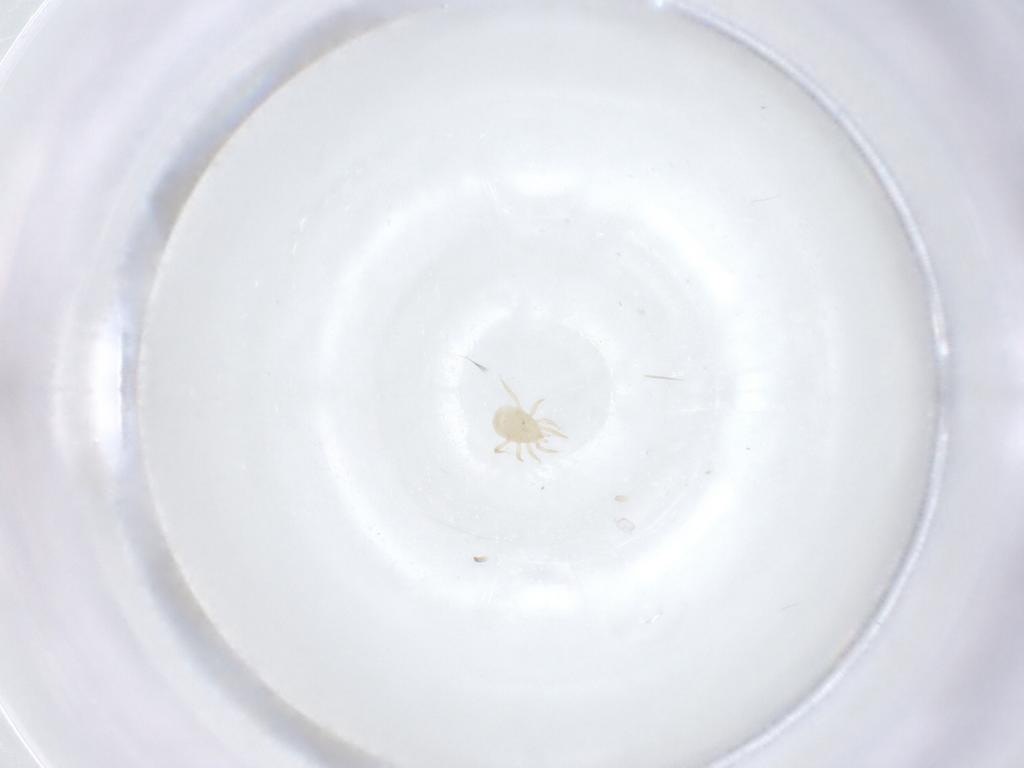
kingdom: Animalia
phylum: Arthropoda
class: Arachnida
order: Mesostigmata
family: Ameroseiidae
